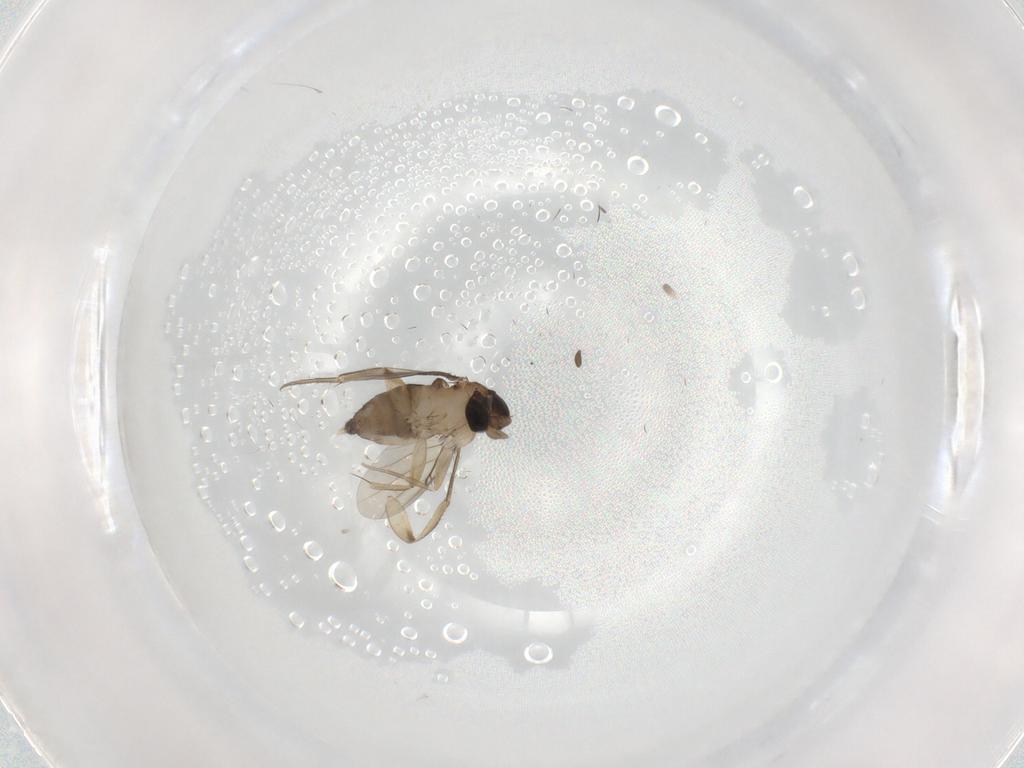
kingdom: Animalia
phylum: Arthropoda
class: Insecta
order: Diptera
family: Phoridae
